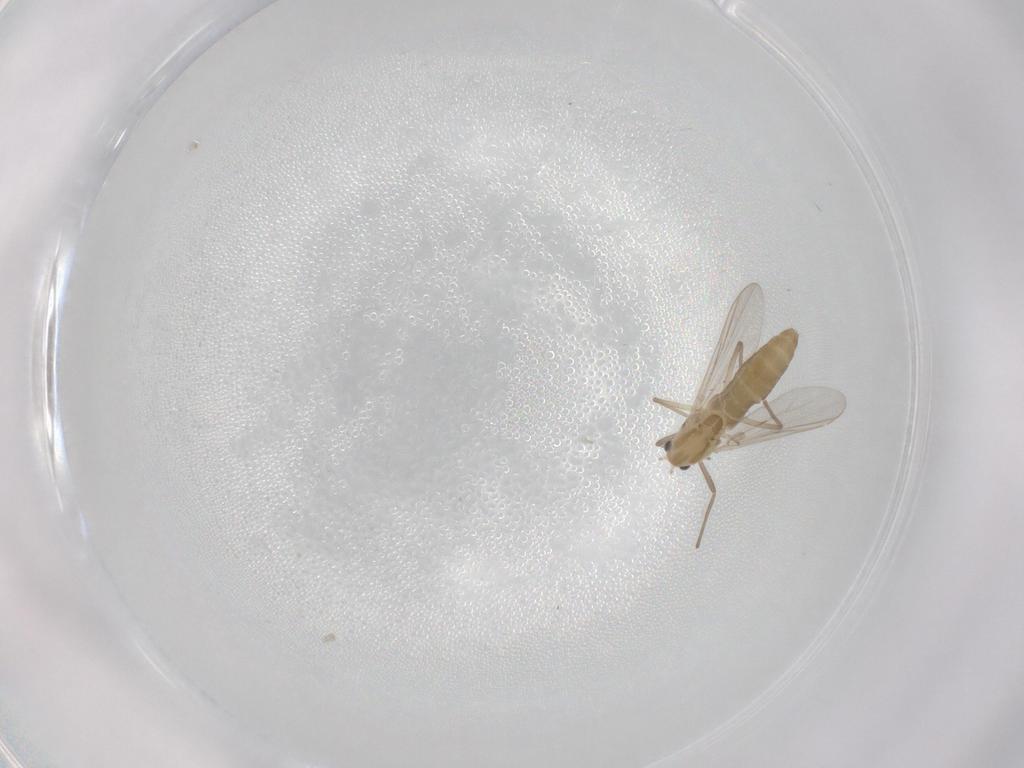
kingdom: Animalia
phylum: Arthropoda
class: Insecta
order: Diptera
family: Chironomidae
